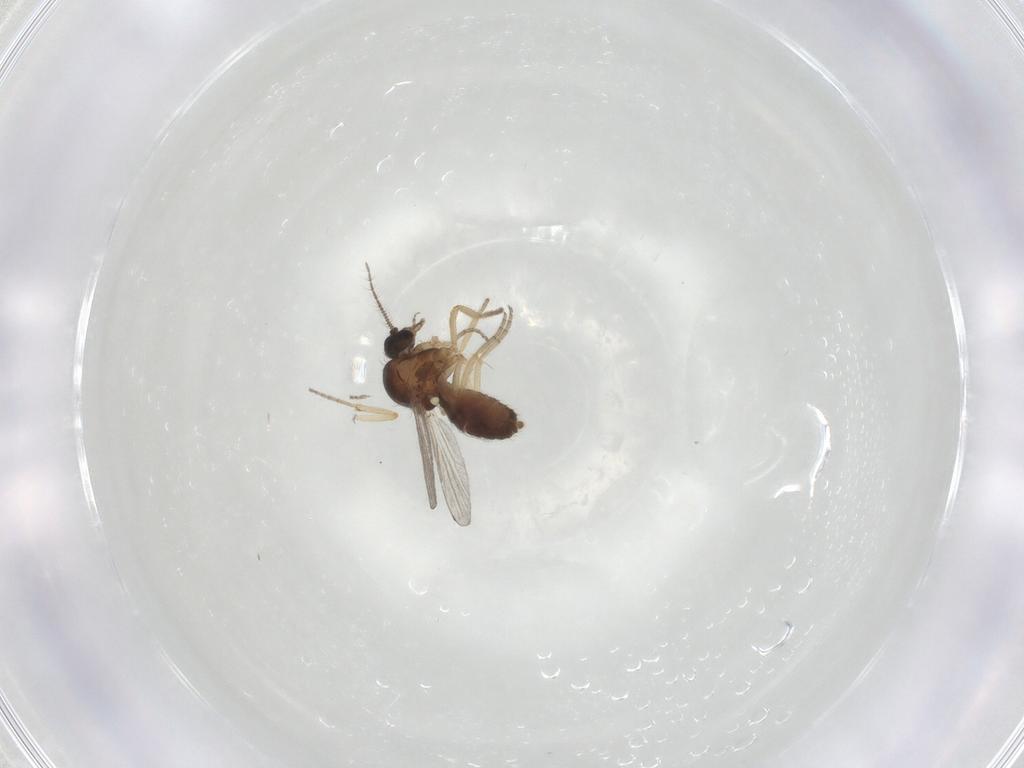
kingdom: Animalia
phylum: Arthropoda
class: Insecta
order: Diptera
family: Ceratopogonidae
